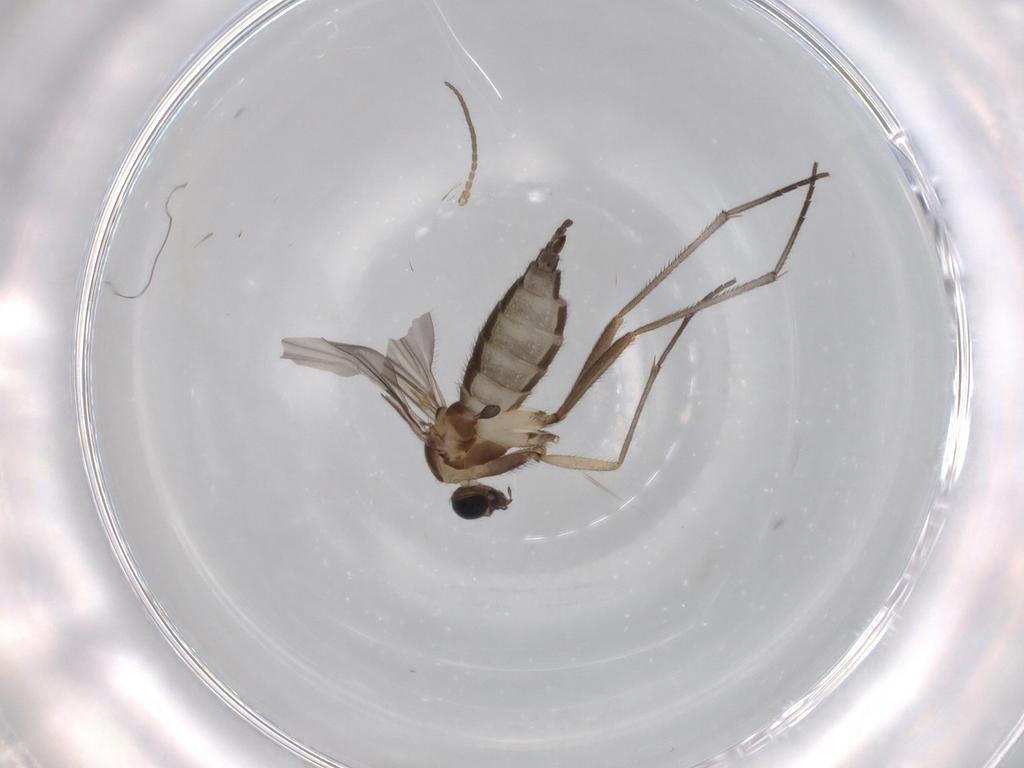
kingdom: Animalia
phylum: Arthropoda
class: Insecta
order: Diptera
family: Sciaridae
